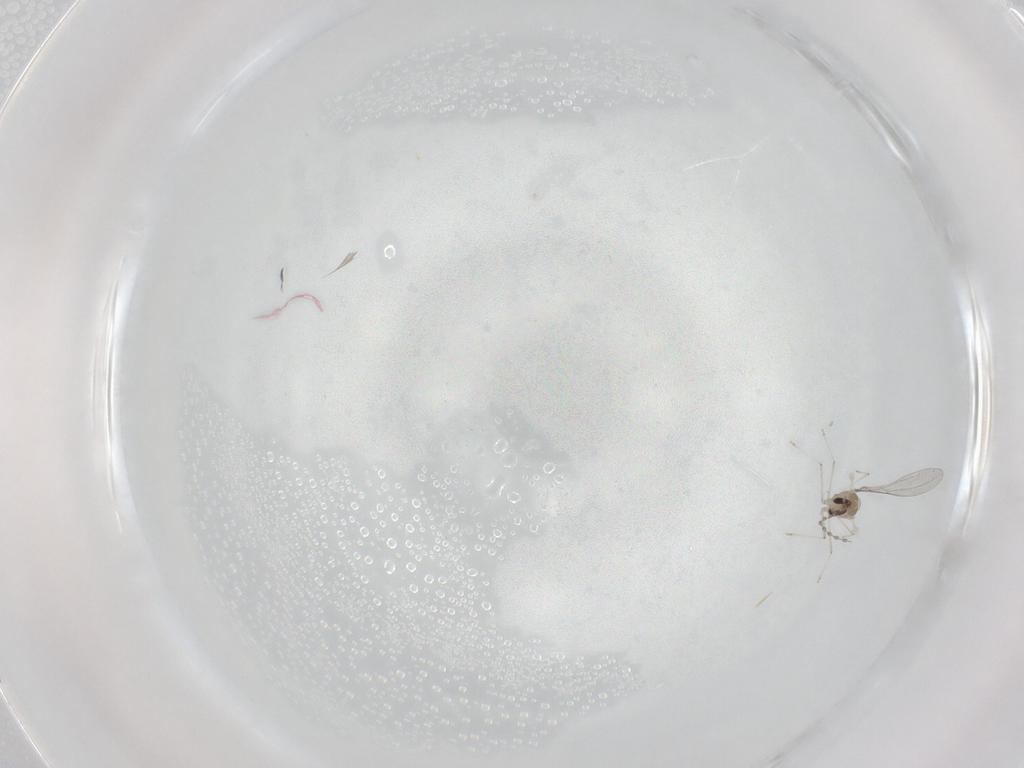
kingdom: Animalia
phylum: Arthropoda
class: Insecta
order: Diptera
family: Cecidomyiidae
